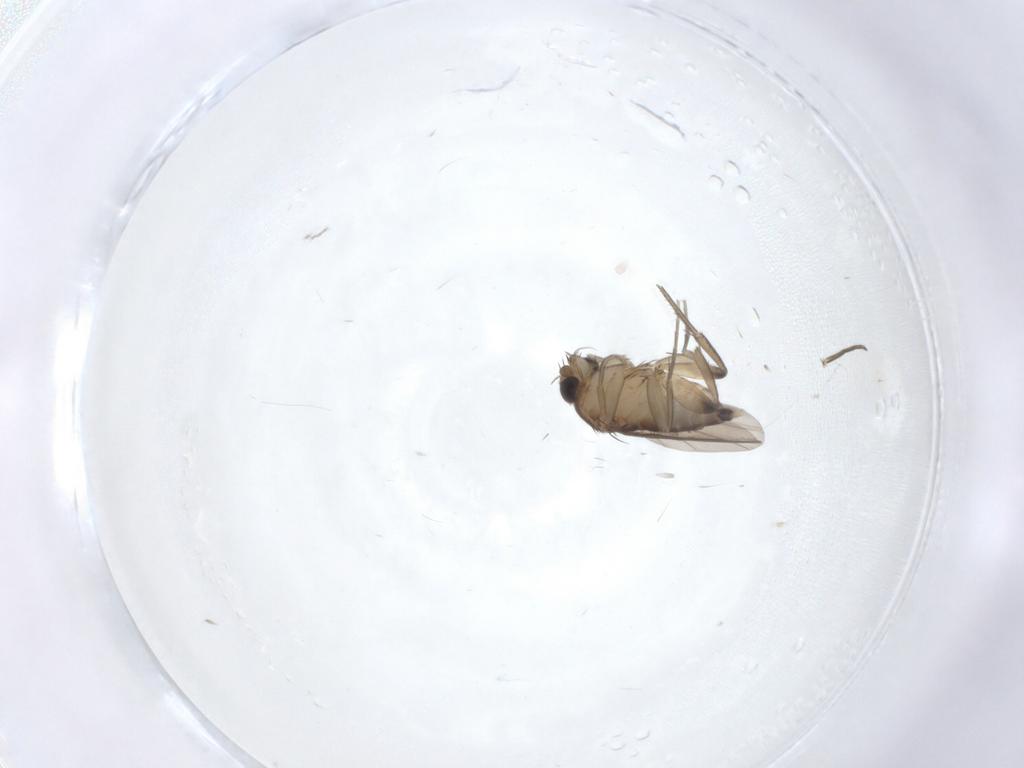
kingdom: Animalia
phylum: Arthropoda
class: Insecta
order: Diptera
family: Phoridae
